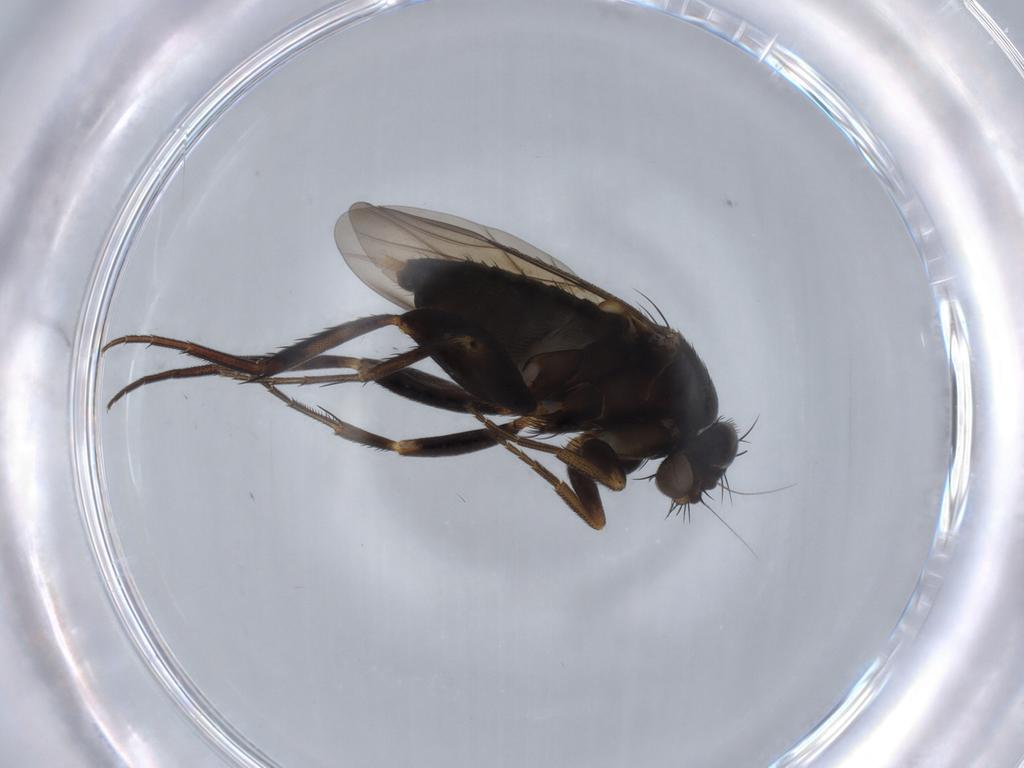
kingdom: Animalia
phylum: Arthropoda
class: Insecta
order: Diptera
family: Phoridae
